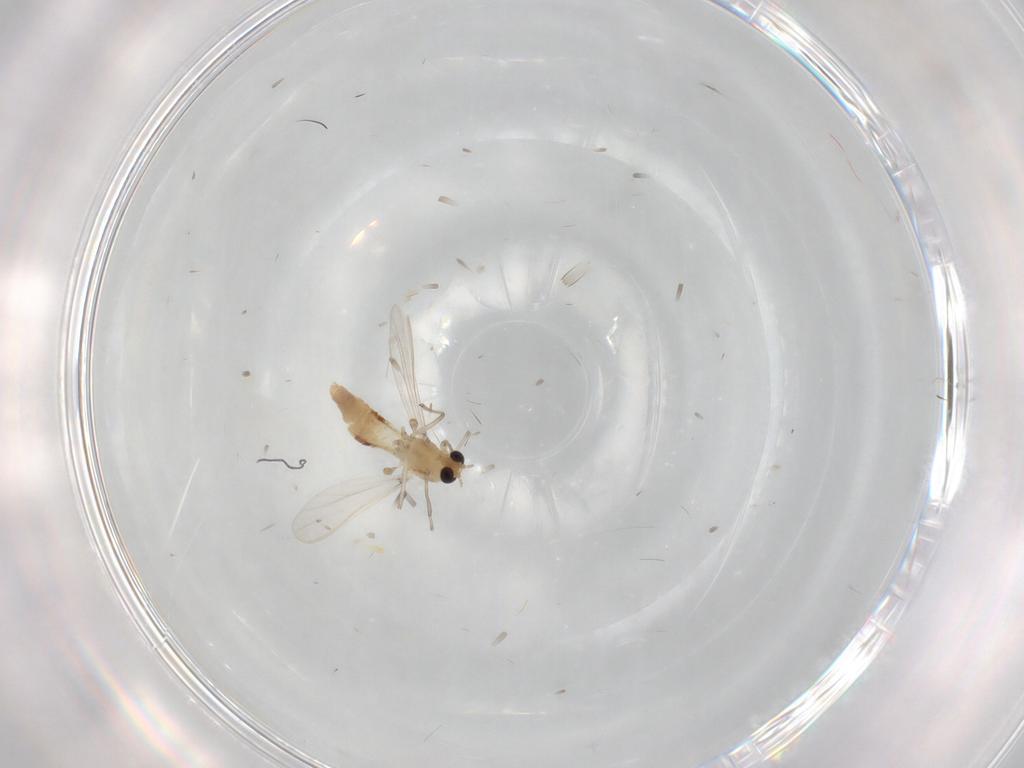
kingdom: Animalia
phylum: Arthropoda
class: Insecta
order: Diptera
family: Chironomidae
